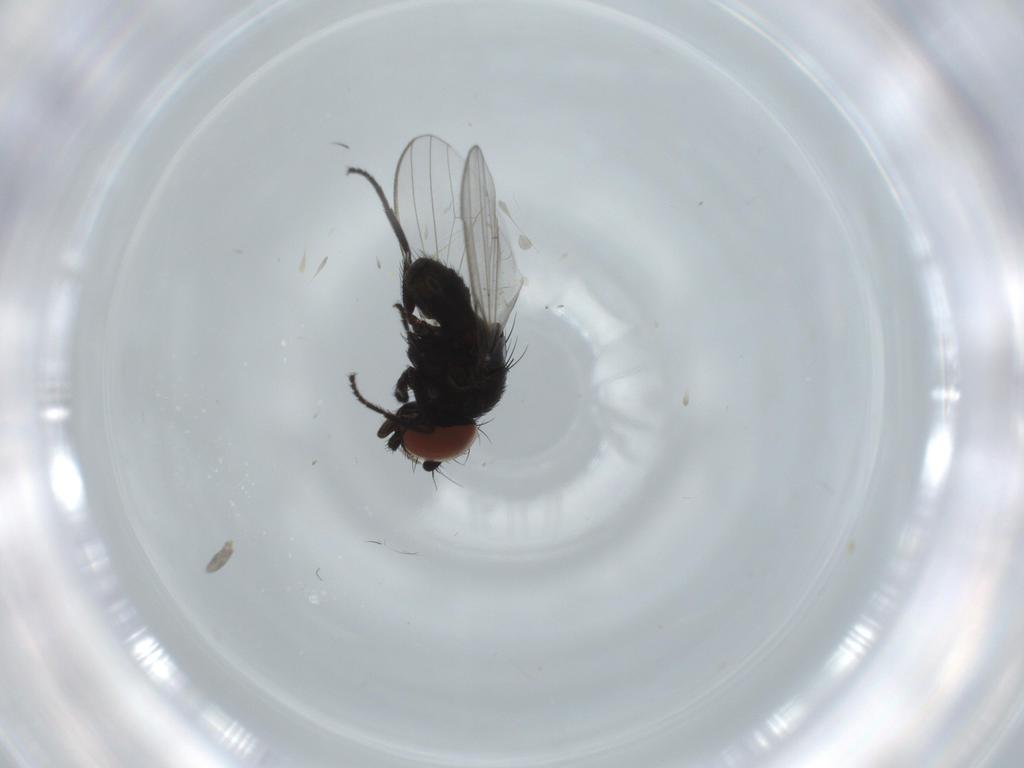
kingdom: Animalia
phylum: Arthropoda
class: Insecta
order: Diptera
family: Milichiidae
